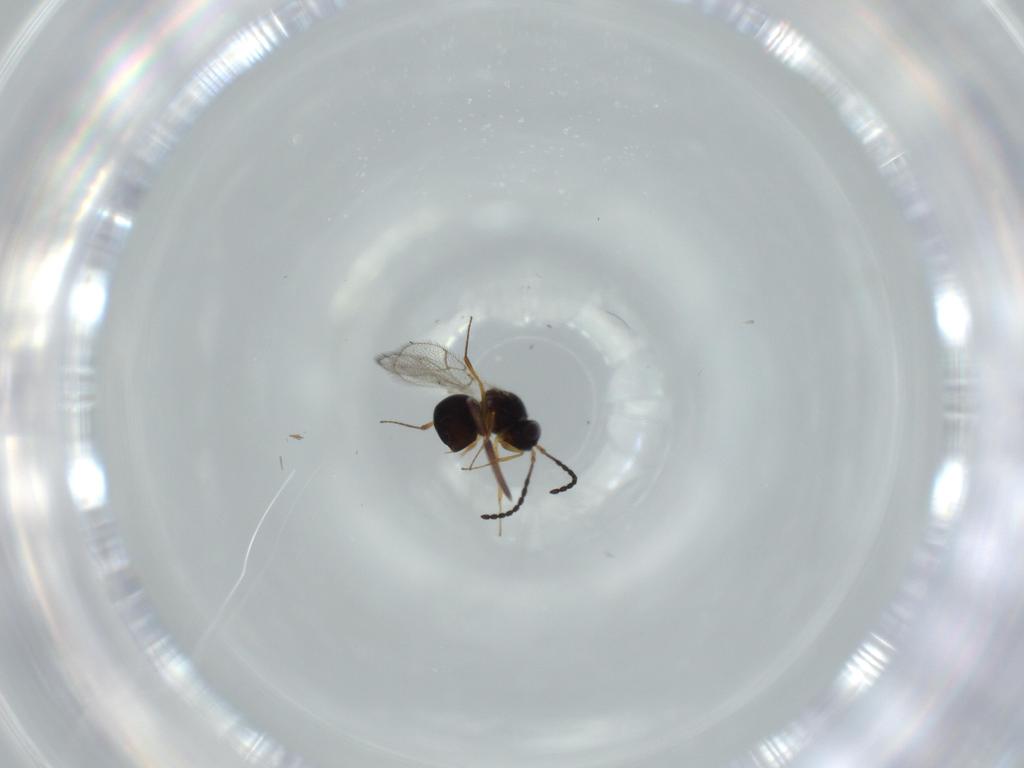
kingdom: Animalia
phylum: Arthropoda
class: Insecta
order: Hymenoptera
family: Figitidae
